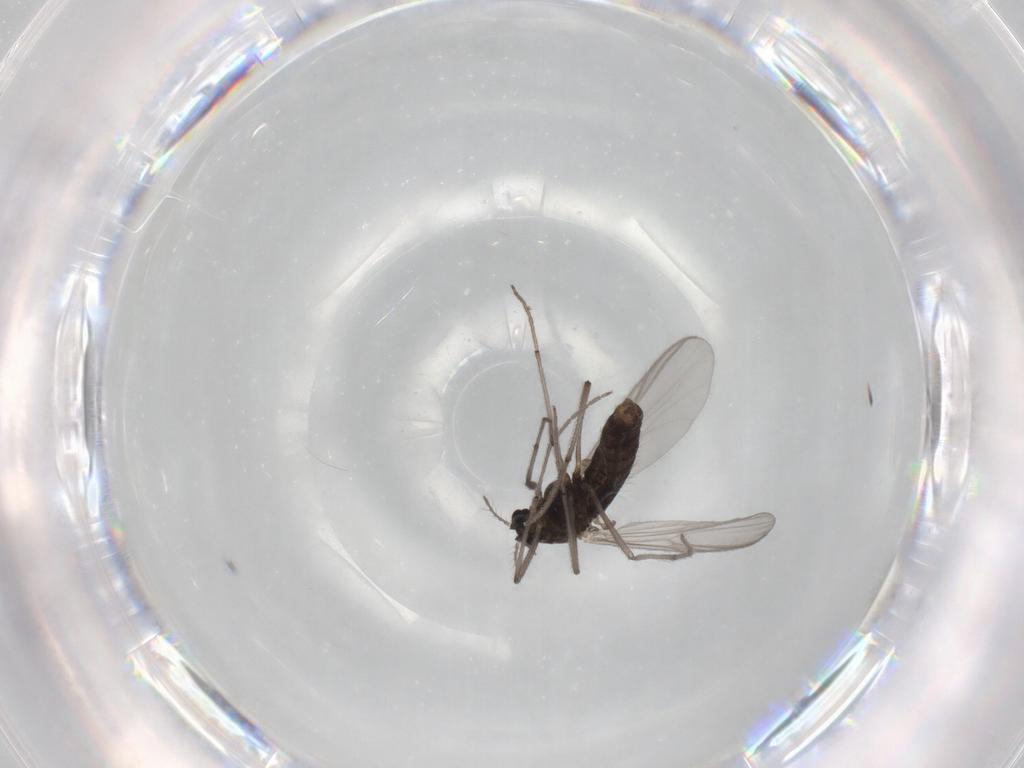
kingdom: Animalia
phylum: Arthropoda
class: Insecta
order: Diptera
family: Chironomidae
